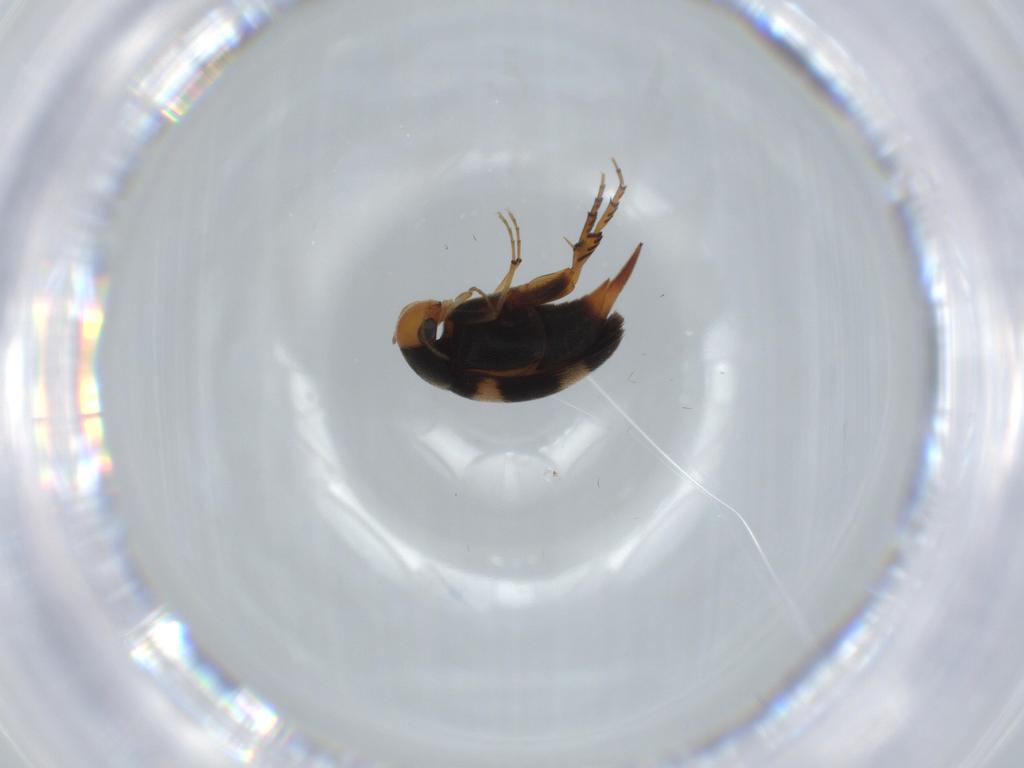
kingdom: Animalia
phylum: Arthropoda
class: Insecta
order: Coleoptera
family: Mordellidae
